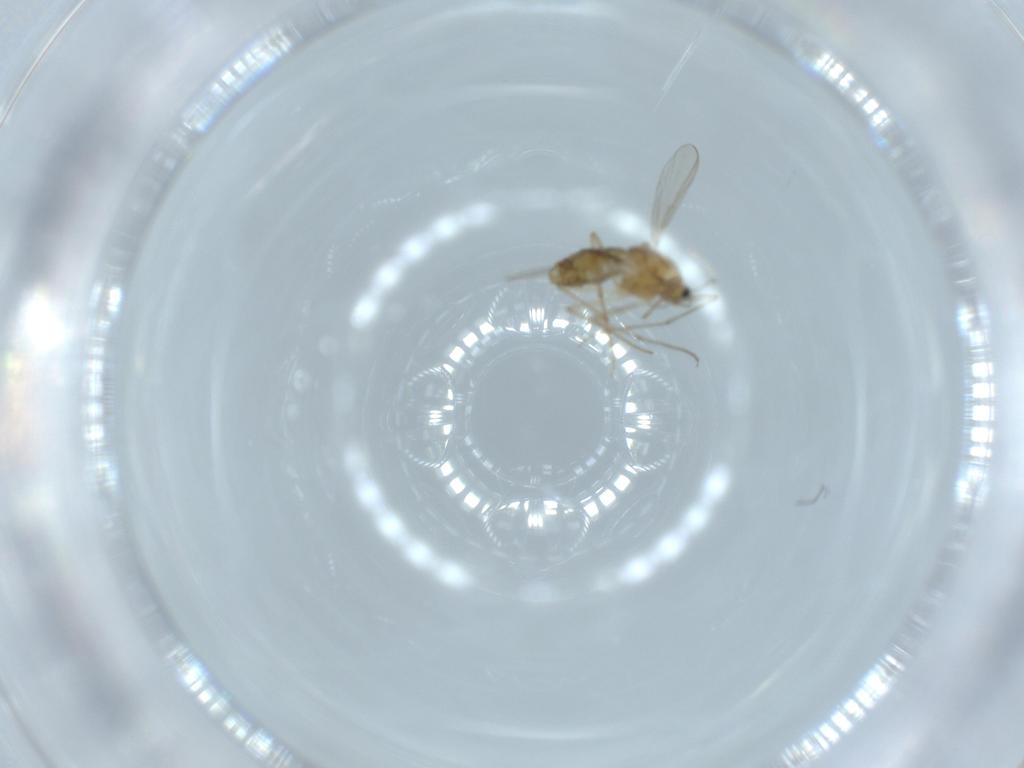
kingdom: Animalia
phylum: Arthropoda
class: Insecta
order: Diptera
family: Chironomidae
